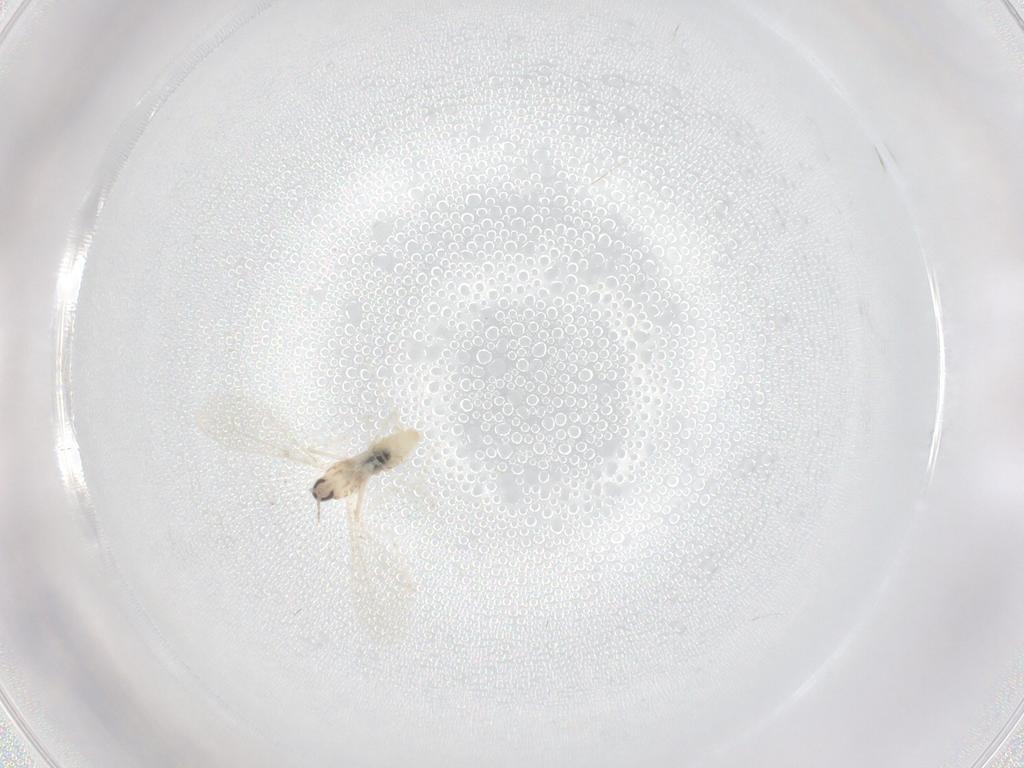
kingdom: Animalia
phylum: Arthropoda
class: Insecta
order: Diptera
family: Cecidomyiidae
